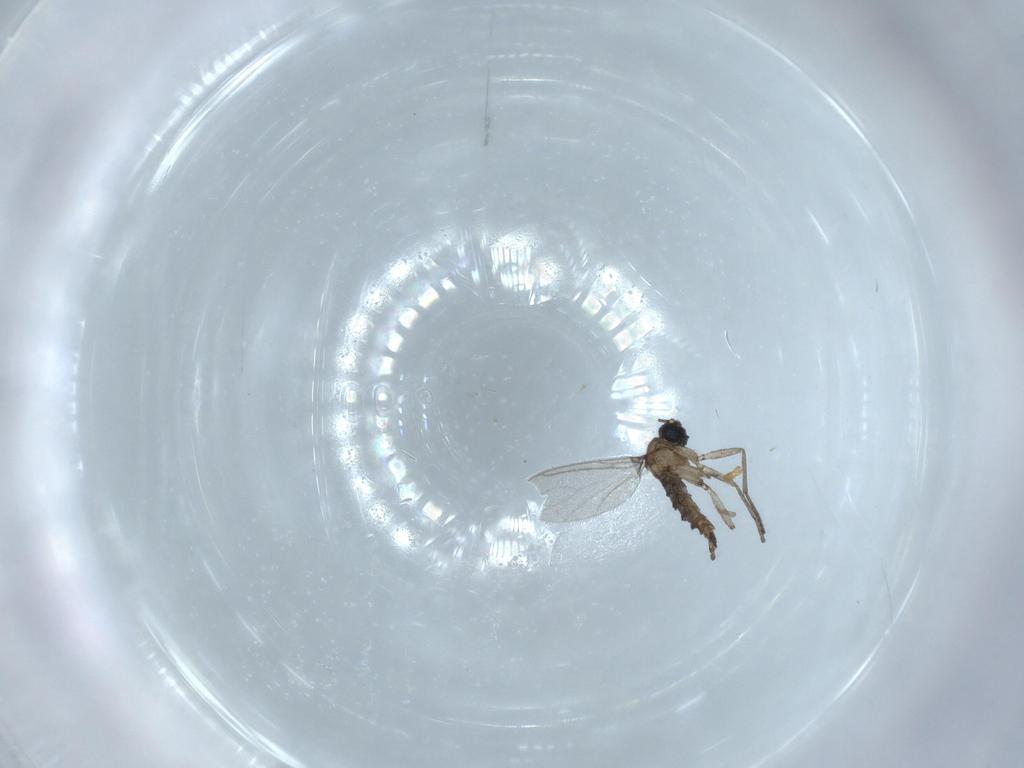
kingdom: Animalia
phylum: Arthropoda
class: Insecta
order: Diptera
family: Sciaridae
